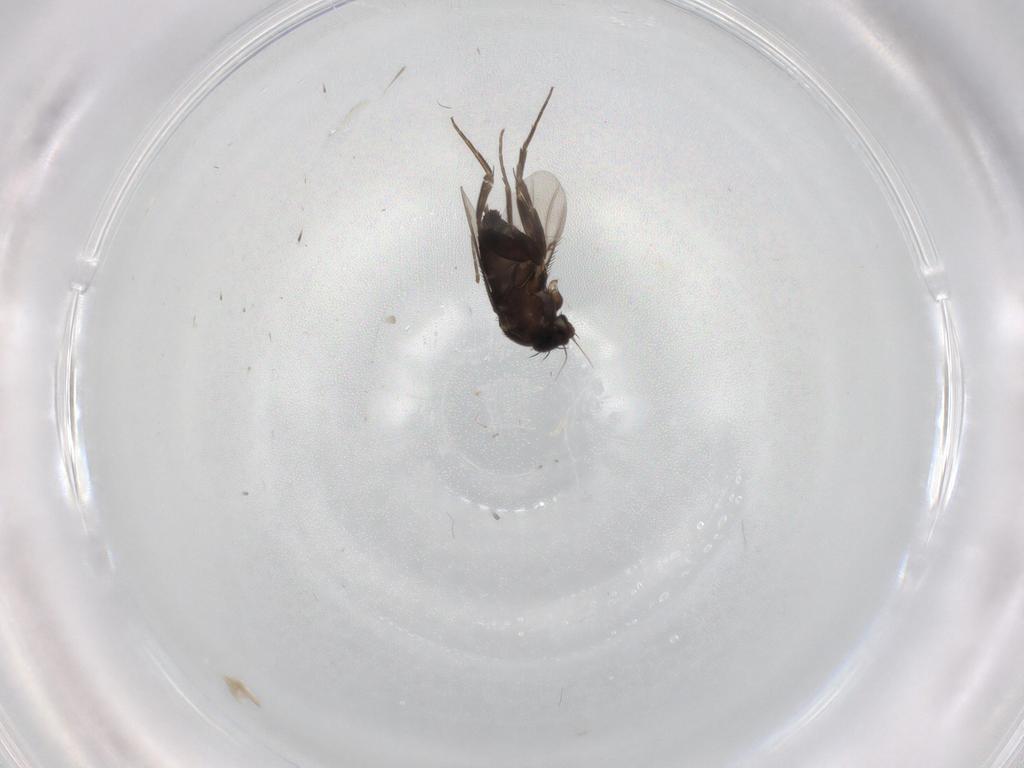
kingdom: Animalia
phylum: Arthropoda
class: Insecta
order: Diptera
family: Phoridae
